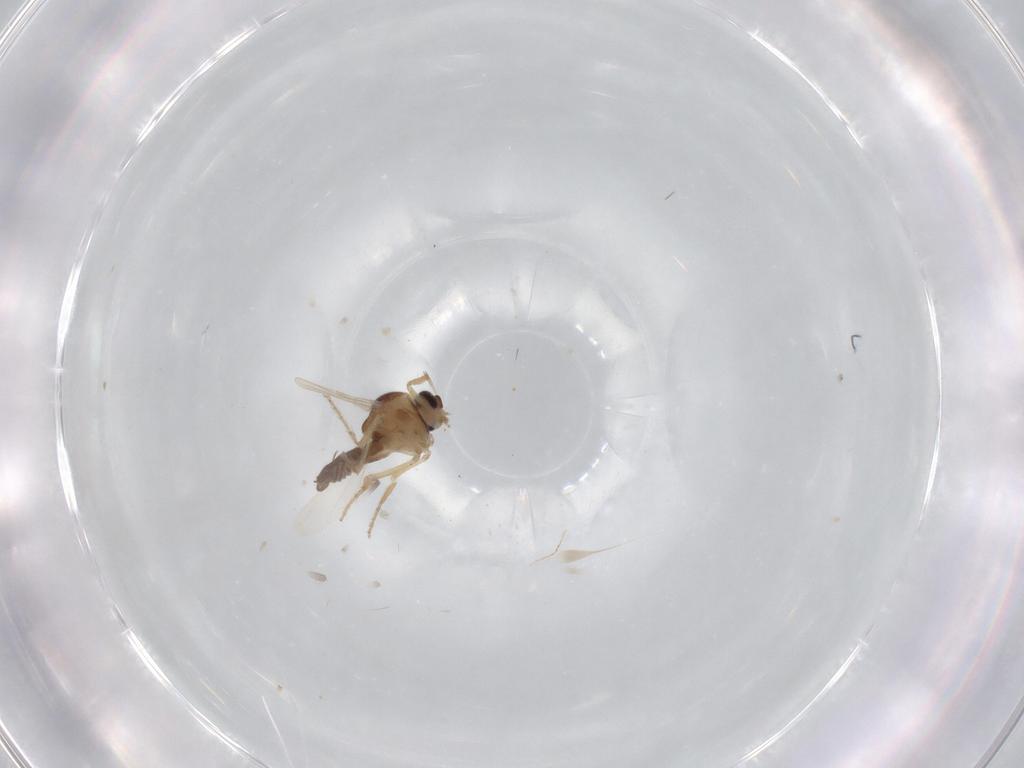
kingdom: Animalia
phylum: Arthropoda
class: Insecta
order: Diptera
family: Ceratopogonidae
